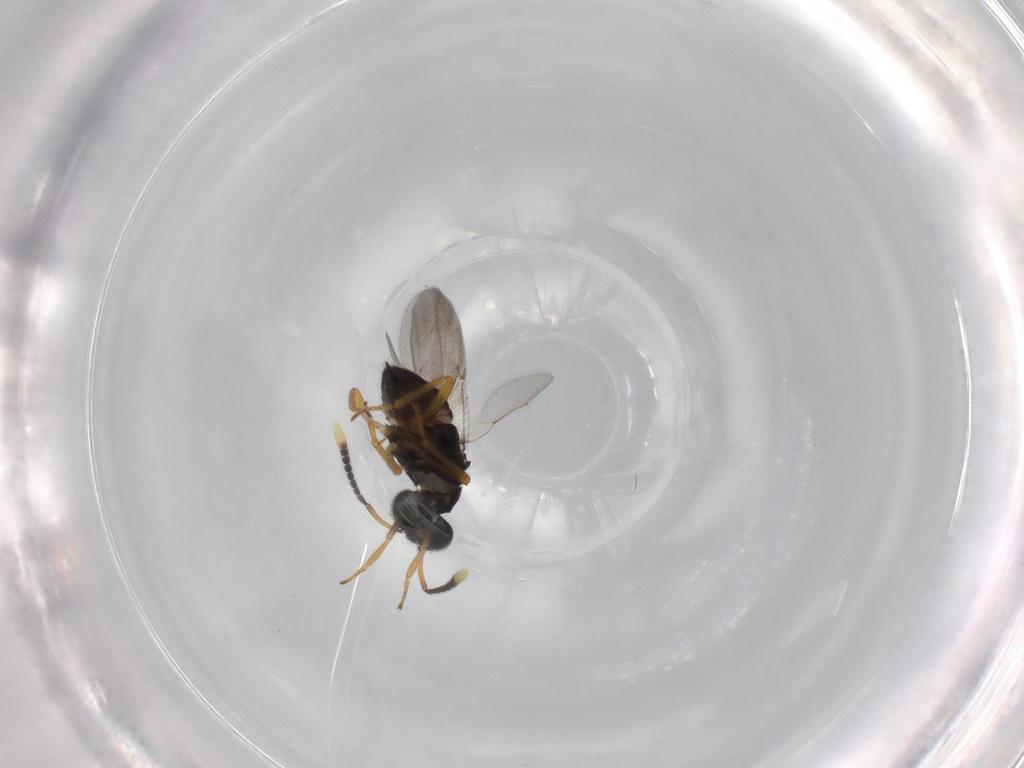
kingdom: Animalia
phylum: Arthropoda
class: Insecta
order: Hymenoptera
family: Encyrtidae
